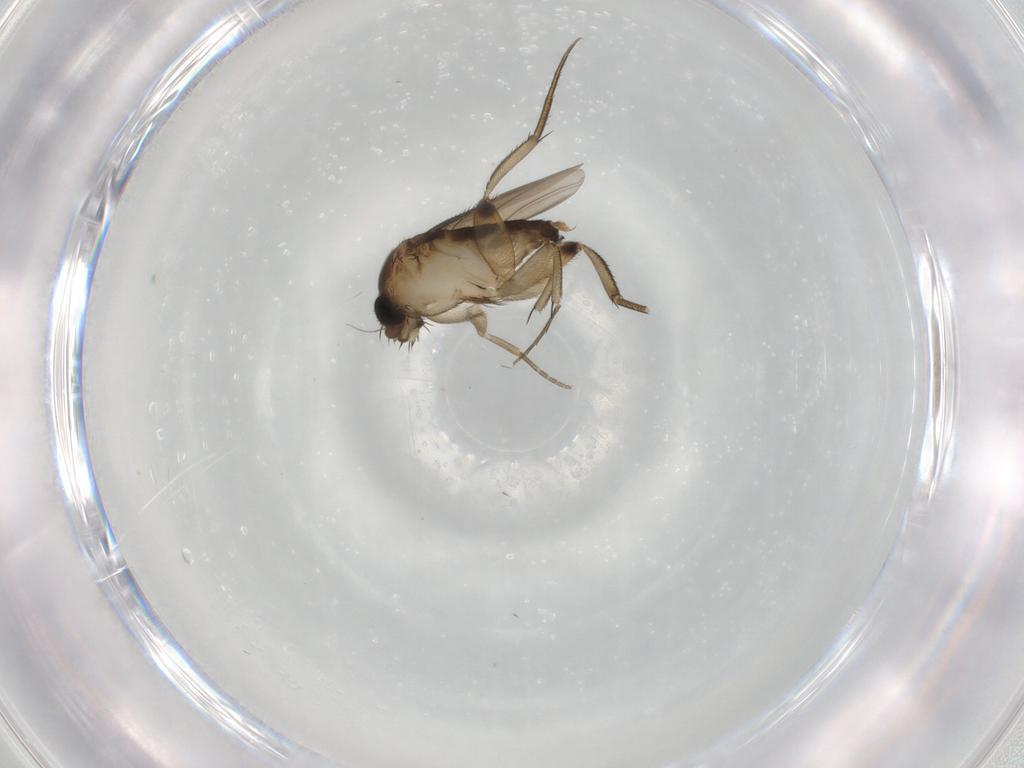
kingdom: Animalia
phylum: Arthropoda
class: Insecta
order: Diptera
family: Phoridae
